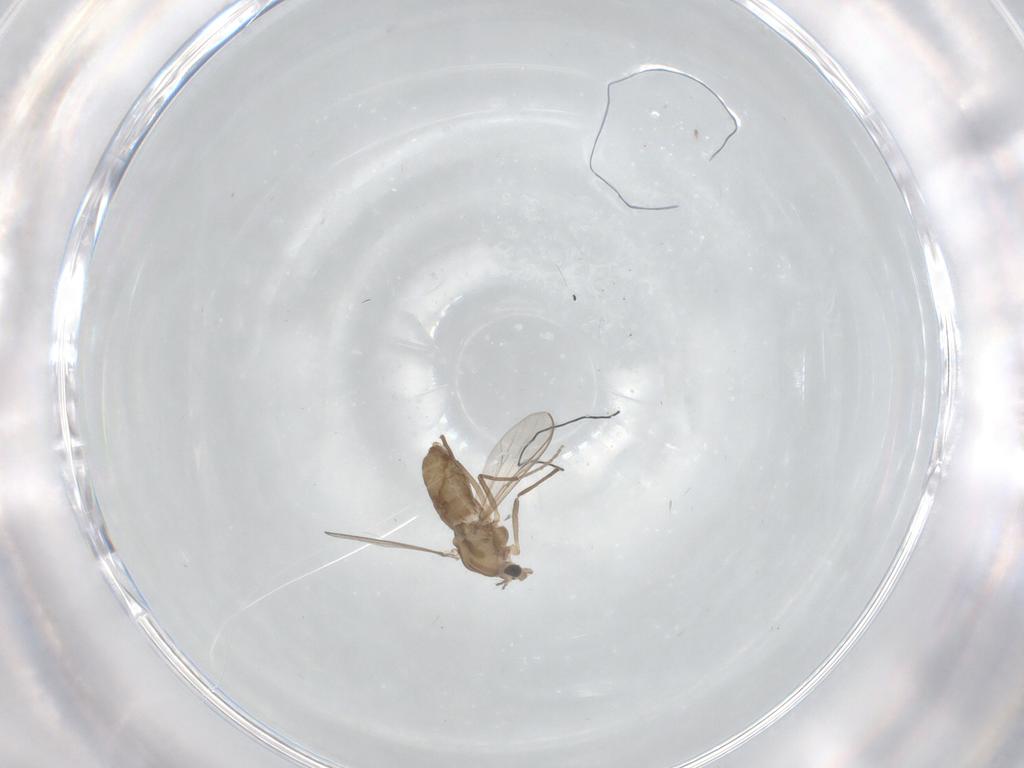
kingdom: Animalia
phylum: Arthropoda
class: Insecta
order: Diptera
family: Chironomidae
